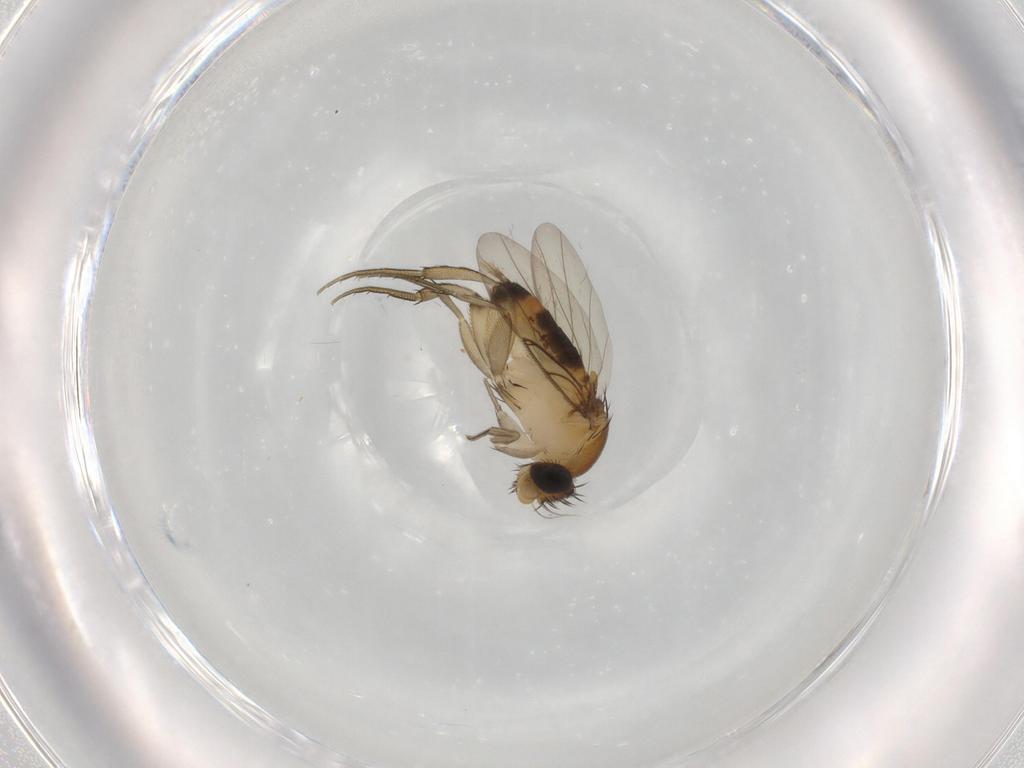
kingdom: Animalia
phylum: Arthropoda
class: Insecta
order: Diptera
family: Phoridae
